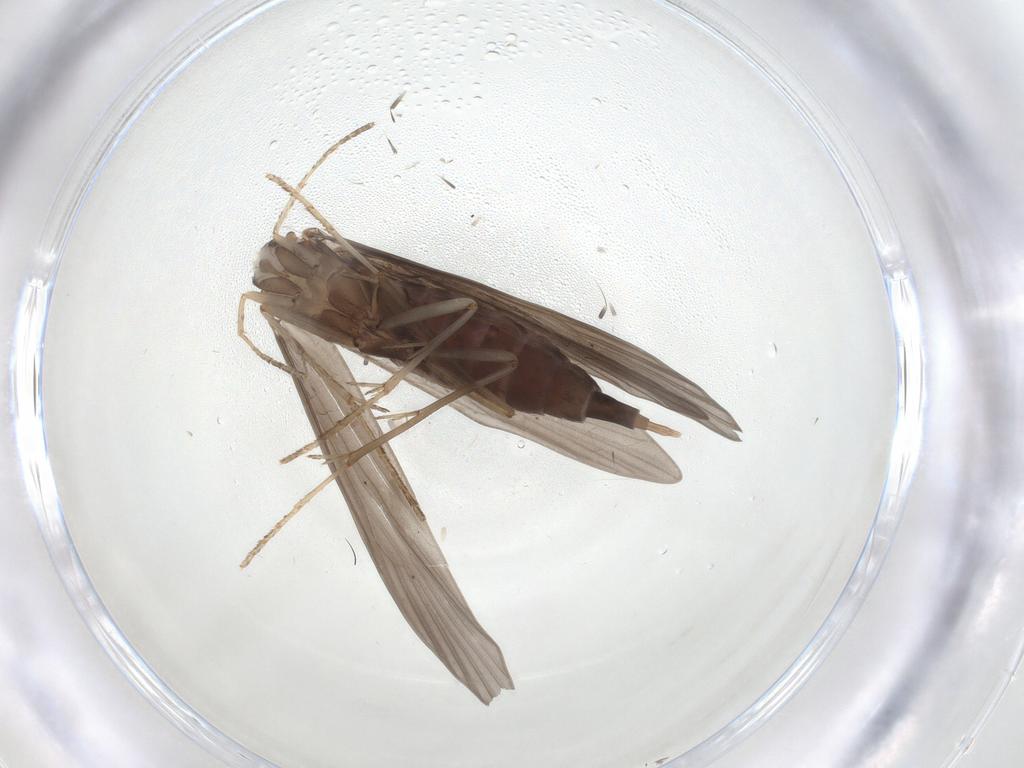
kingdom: Animalia
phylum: Arthropoda
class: Insecta
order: Trichoptera
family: Xiphocentronidae
